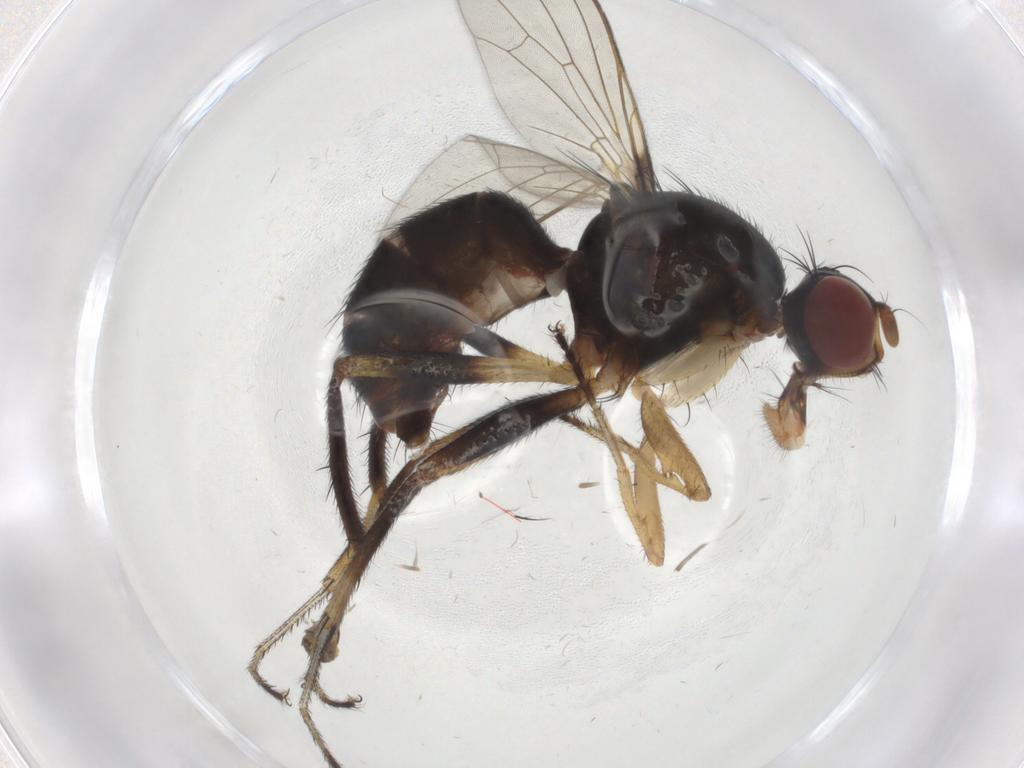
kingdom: Animalia
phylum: Arthropoda
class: Insecta
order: Diptera
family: Sepsidae
